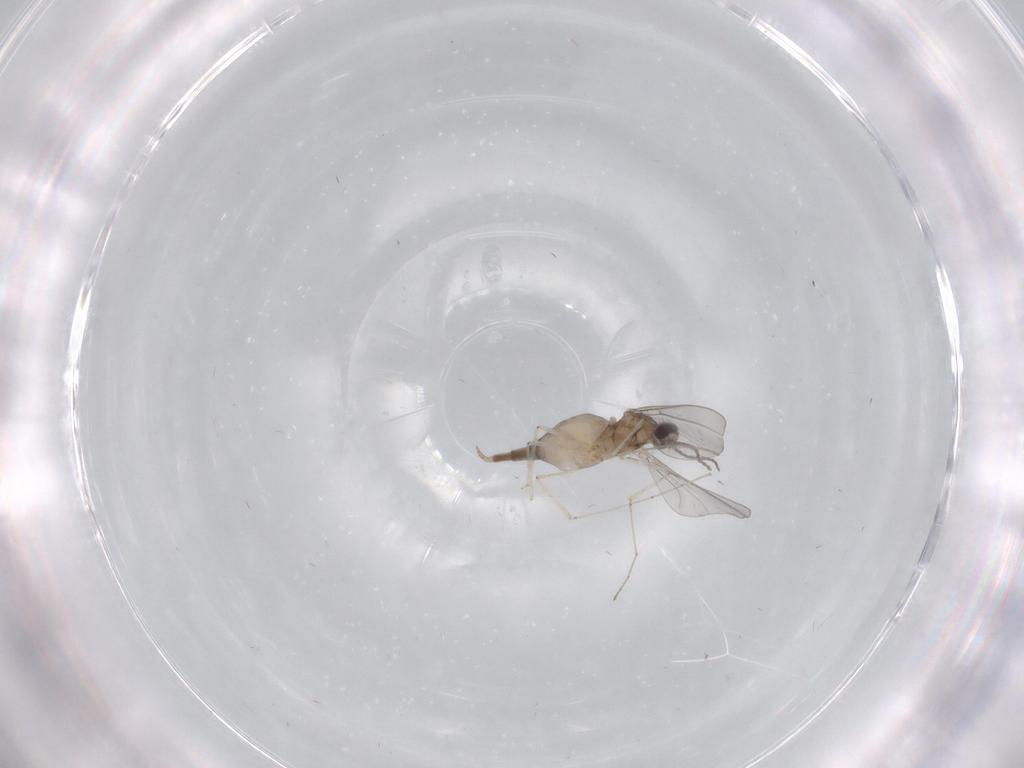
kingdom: Animalia
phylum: Arthropoda
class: Insecta
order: Diptera
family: Cecidomyiidae
